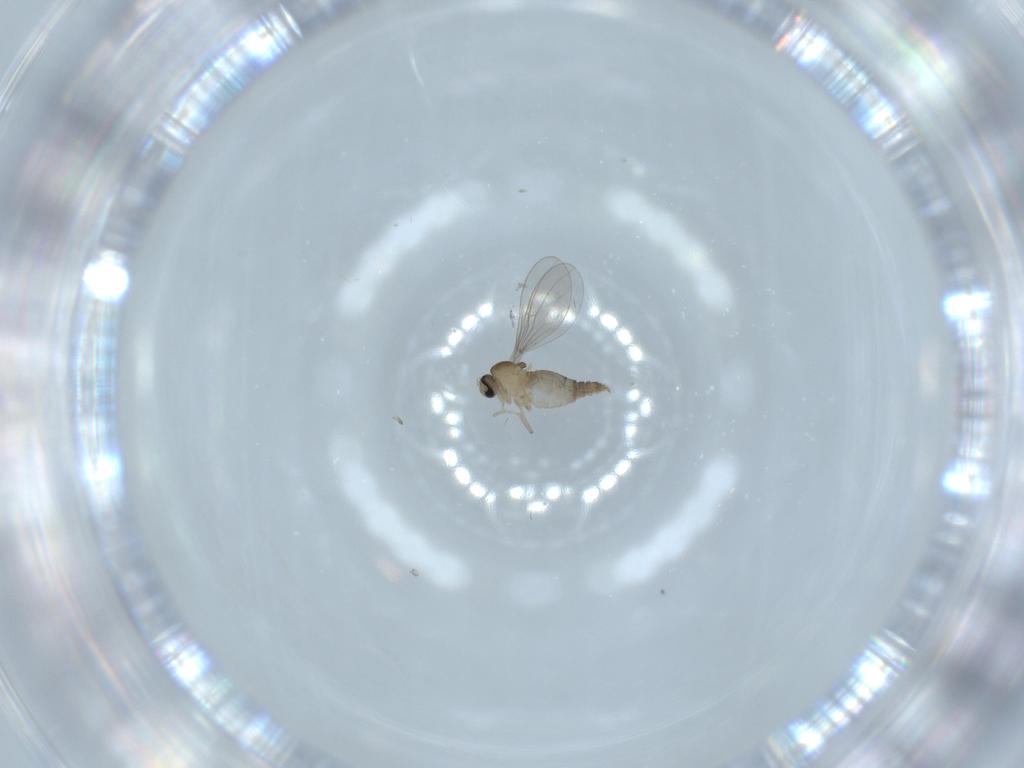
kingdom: Animalia
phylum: Arthropoda
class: Insecta
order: Diptera
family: Cecidomyiidae
